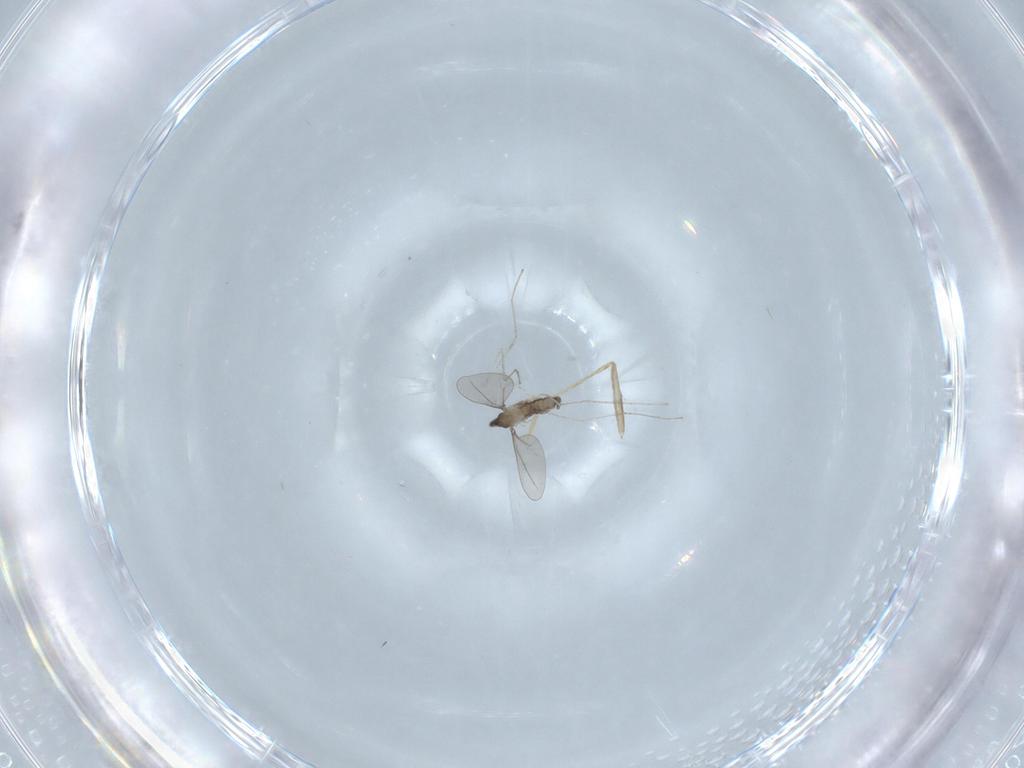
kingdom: Animalia
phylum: Arthropoda
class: Insecta
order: Diptera
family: Cecidomyiidae
